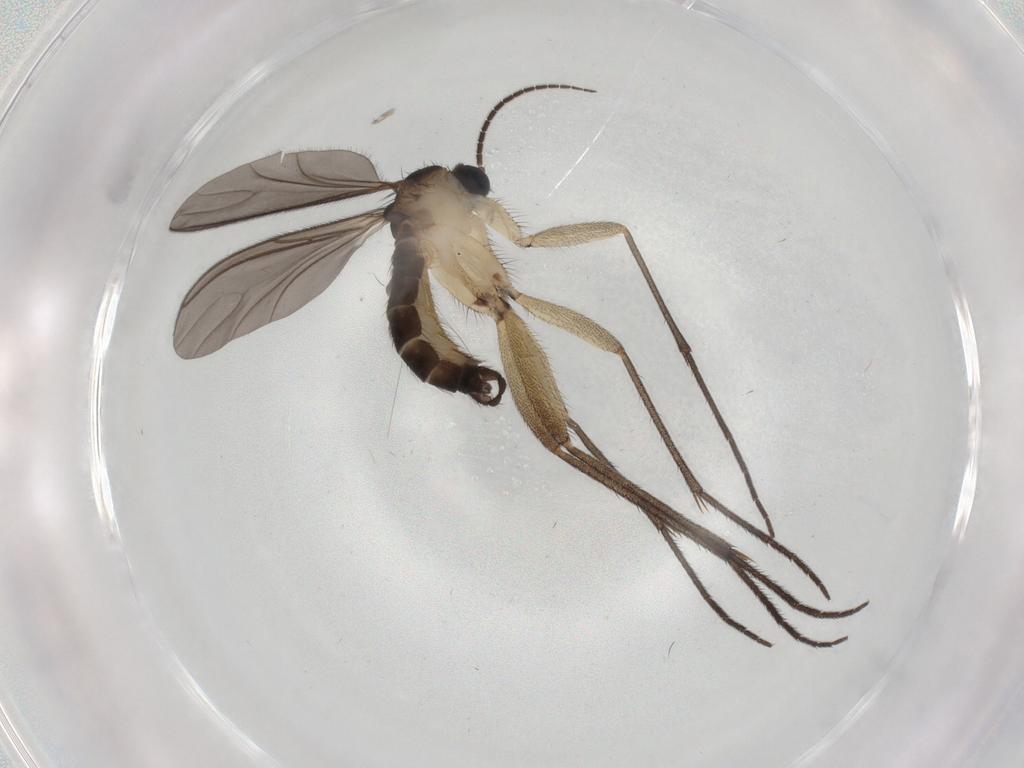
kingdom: Animalia
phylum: Arthropoda
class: Insecta
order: Diptera
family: Sciaridae
